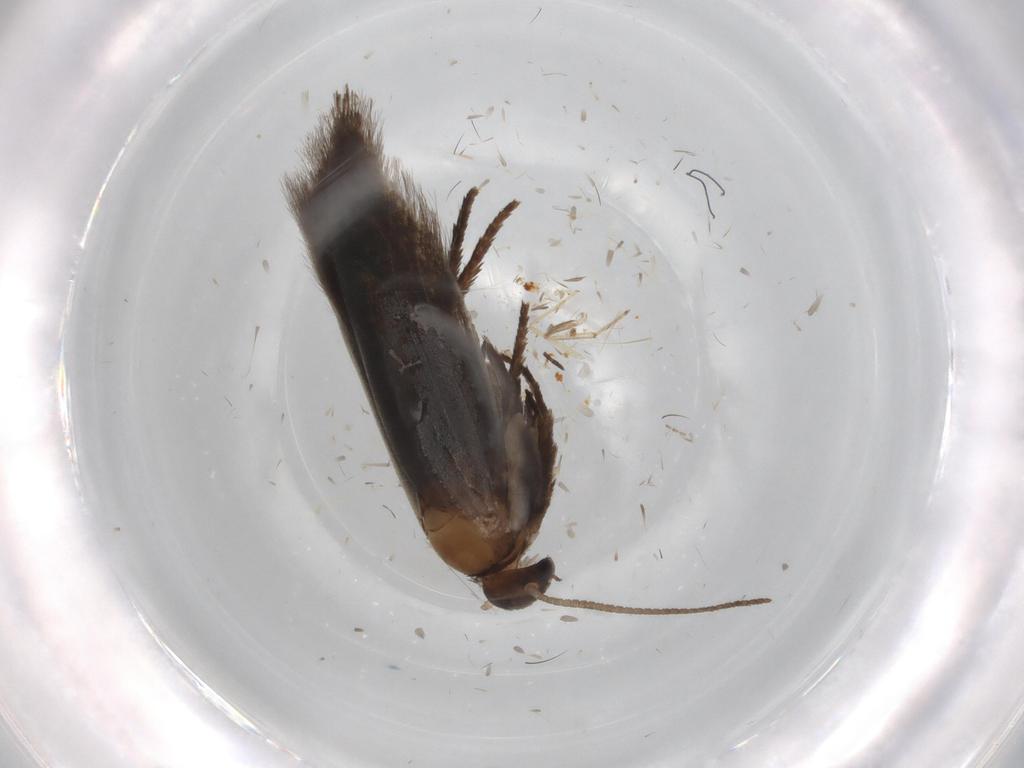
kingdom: Animalia
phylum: Arthropoda
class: Insecta
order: Lepidoptera
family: Heliozelidae
